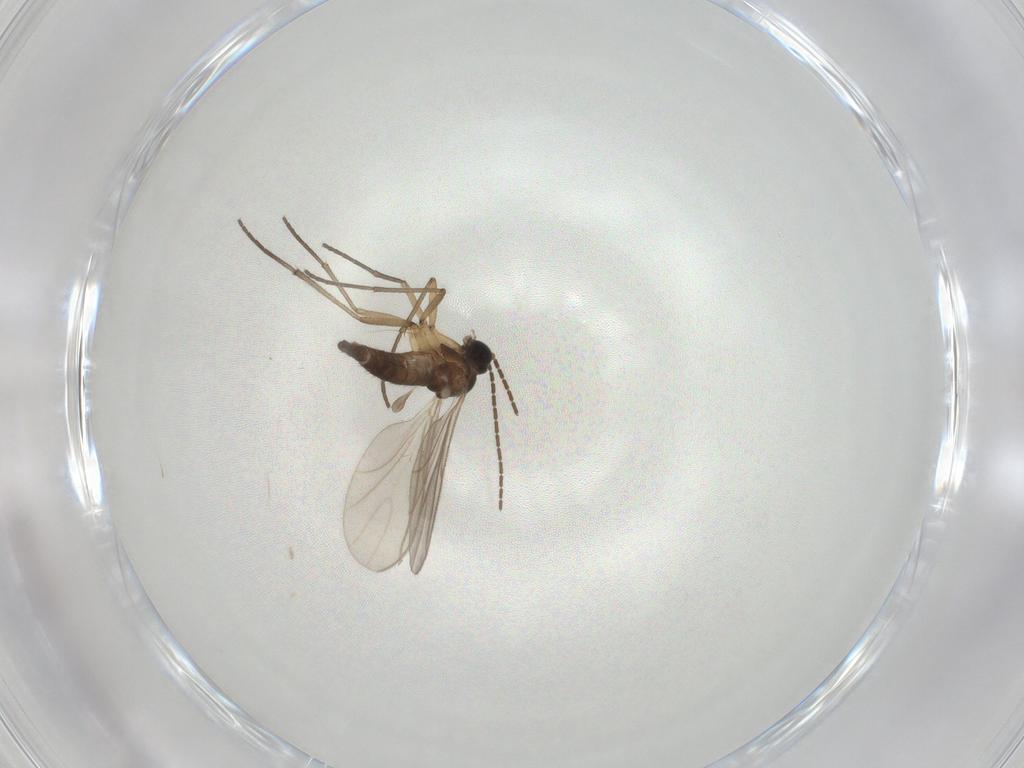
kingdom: Animalia
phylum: Arthropoda
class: Insecta
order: Diptera
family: Sciaridae
